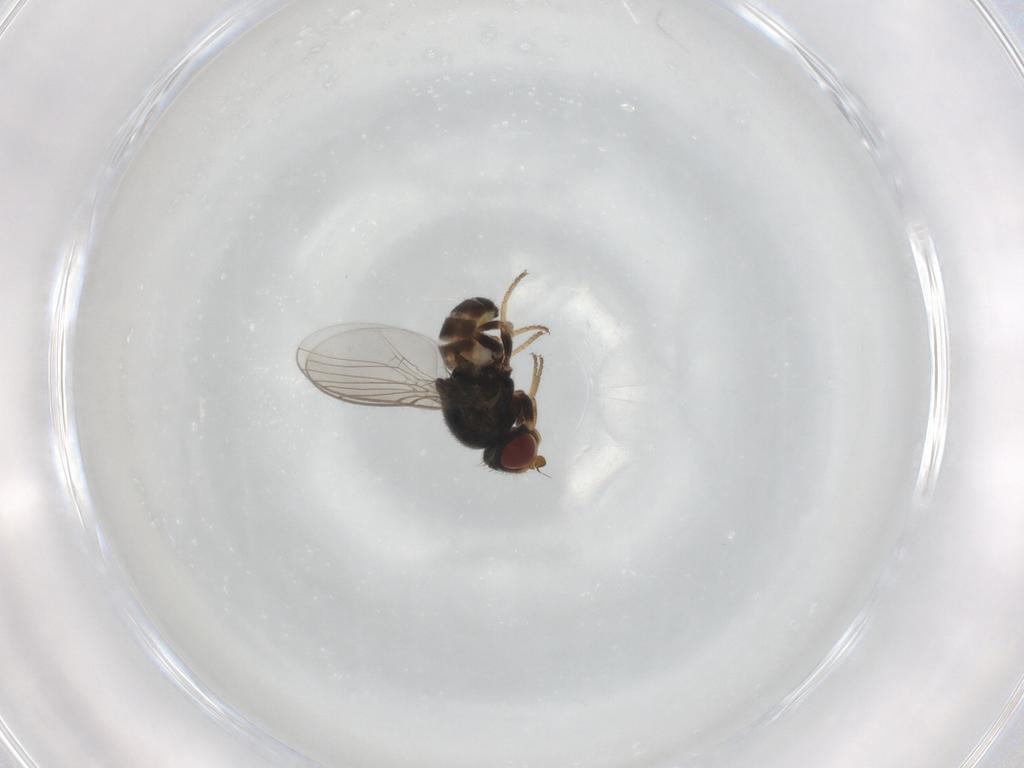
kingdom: Animalia
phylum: Arthropoda
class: Insecta
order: Diptera
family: Chloropidae
